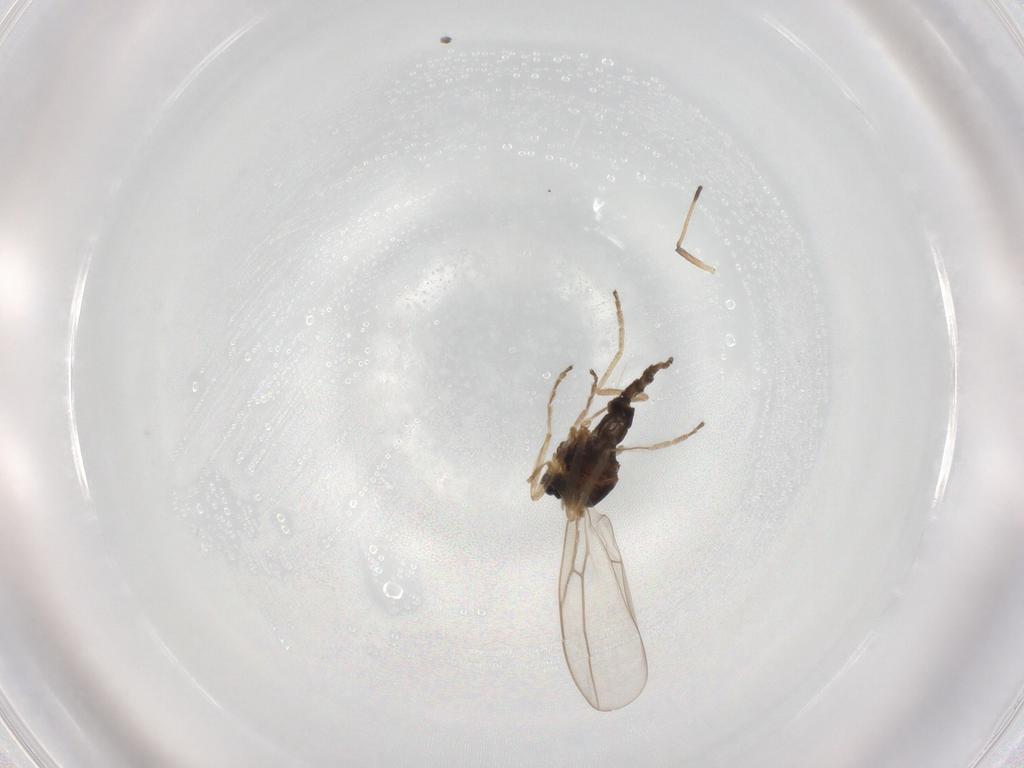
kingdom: Animalia
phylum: Arthropoda
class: Insecta
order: Diptera
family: Cecidomyiidae
